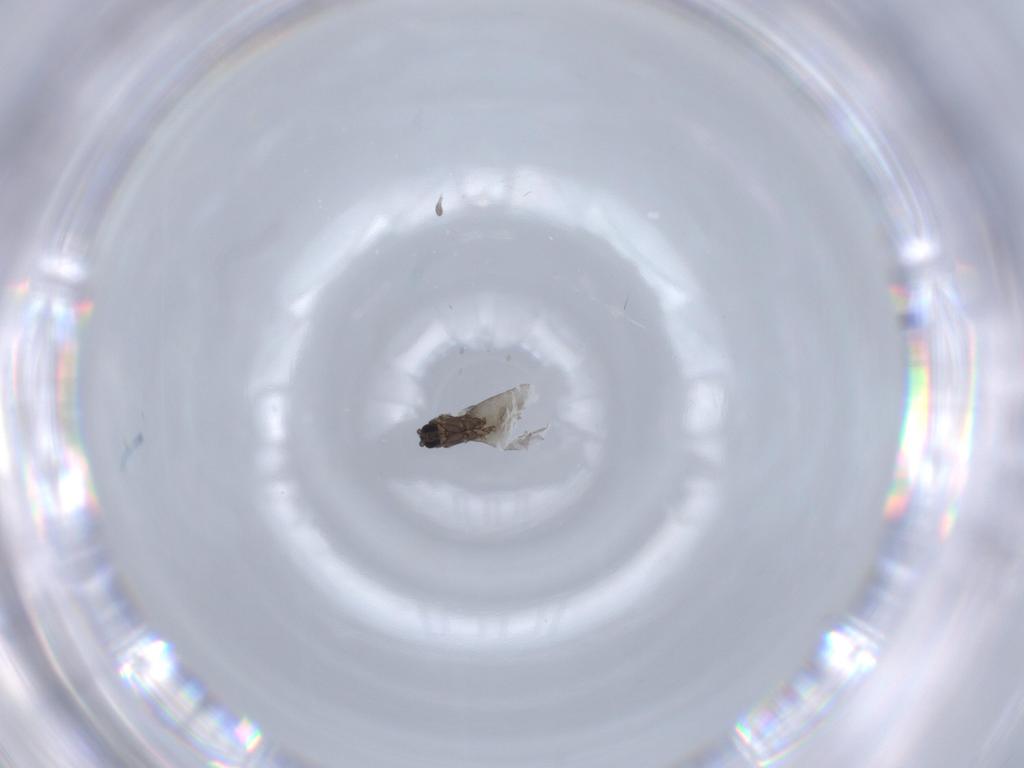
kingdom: Animalia
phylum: Arthropoda
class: Insecta
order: Diptera
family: Sciaridae
